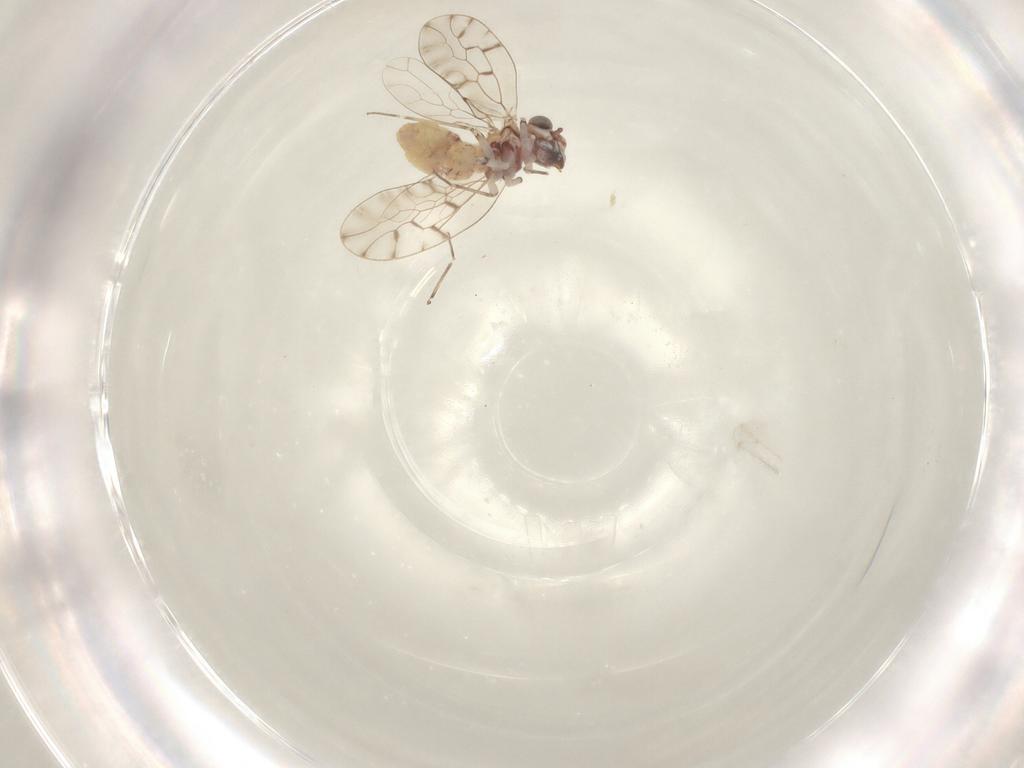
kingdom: Animalia
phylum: Arthropoda
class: Insecta
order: Psocodea
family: Psoquillidae
